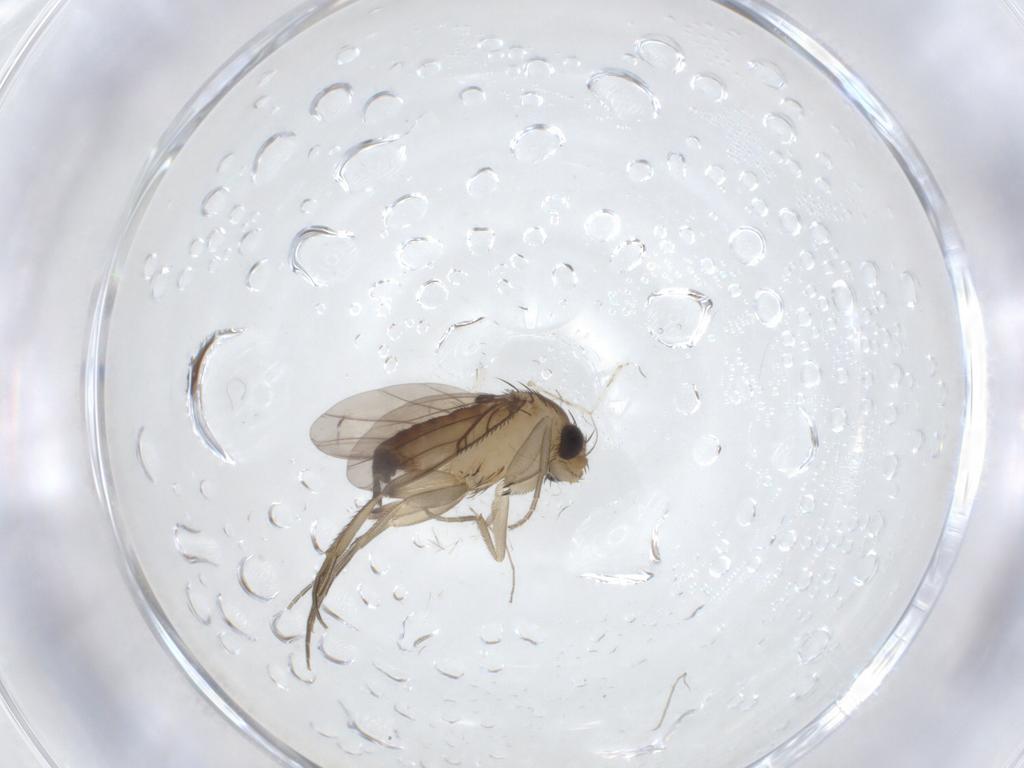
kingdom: Animalia
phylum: Arthropoda
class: Insecta
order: Diptera
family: Phoridae
